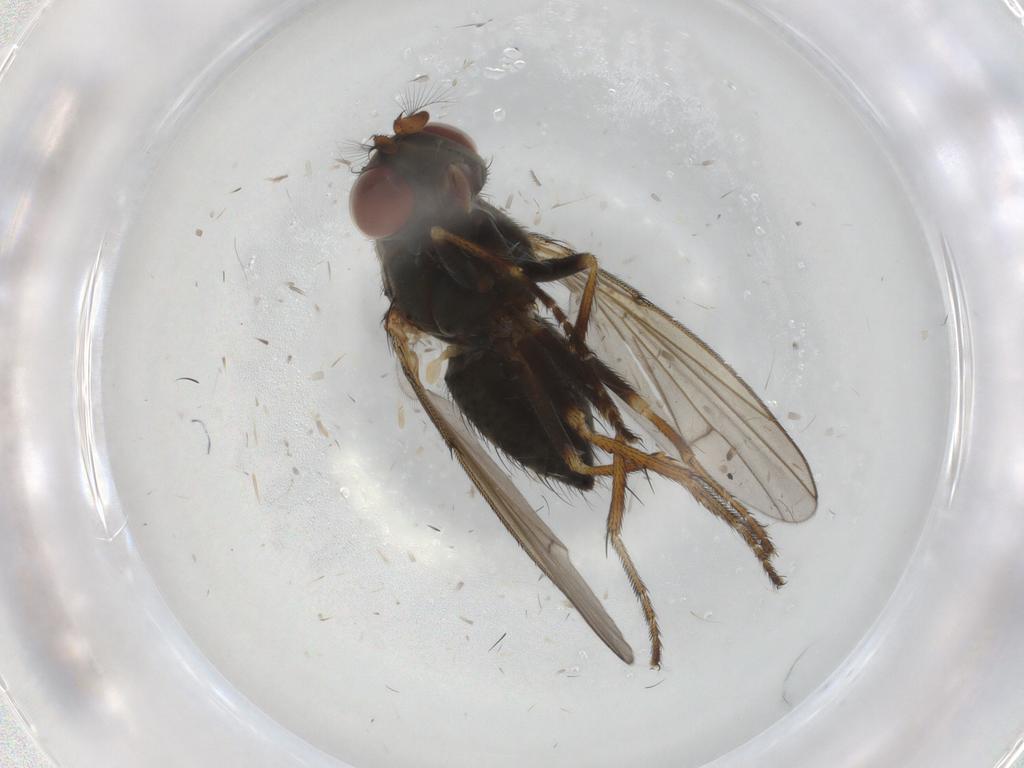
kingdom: Animalia
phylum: Arthropoda
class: Insecta
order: Diptera
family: Ephydridae
